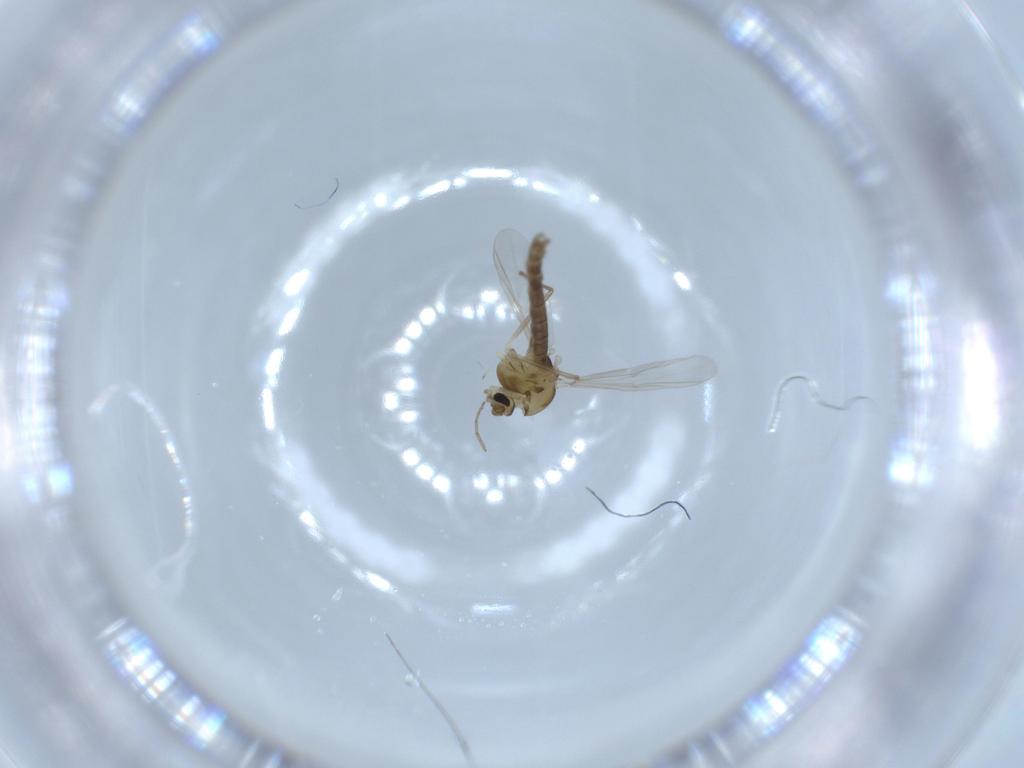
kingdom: Animalia
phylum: Arthropoda
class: Insecta
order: Diptera
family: Chironomidae
